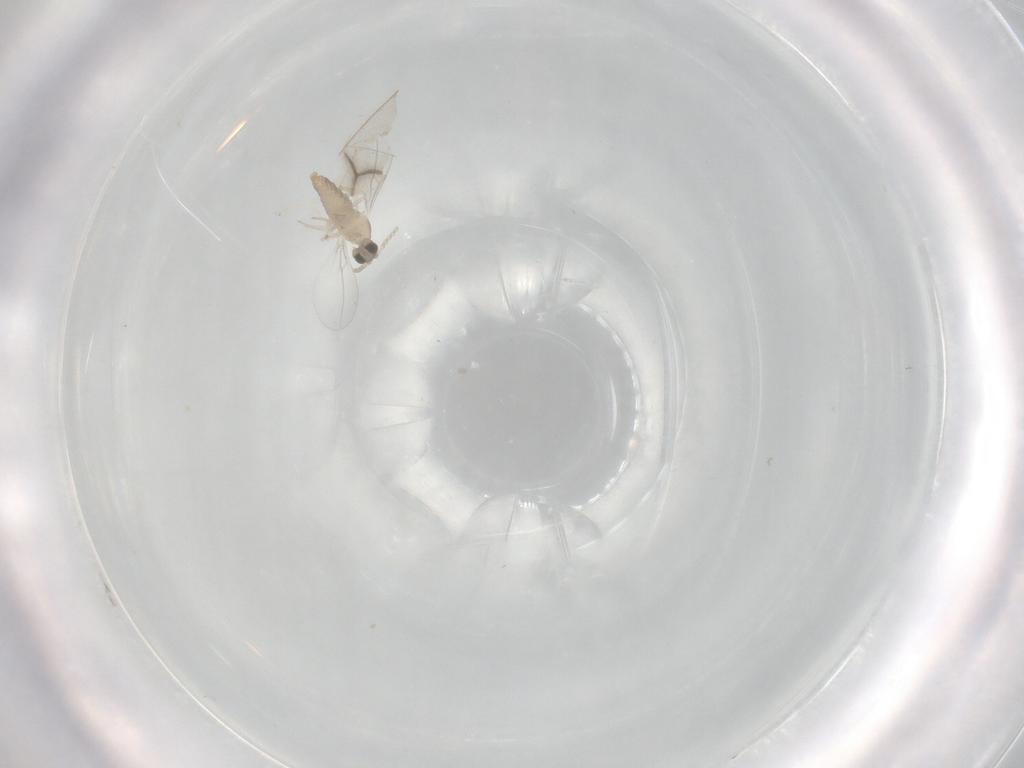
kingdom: Animalia
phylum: Arthropoda
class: Insecta
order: Diptera
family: Cecidomyiidae
